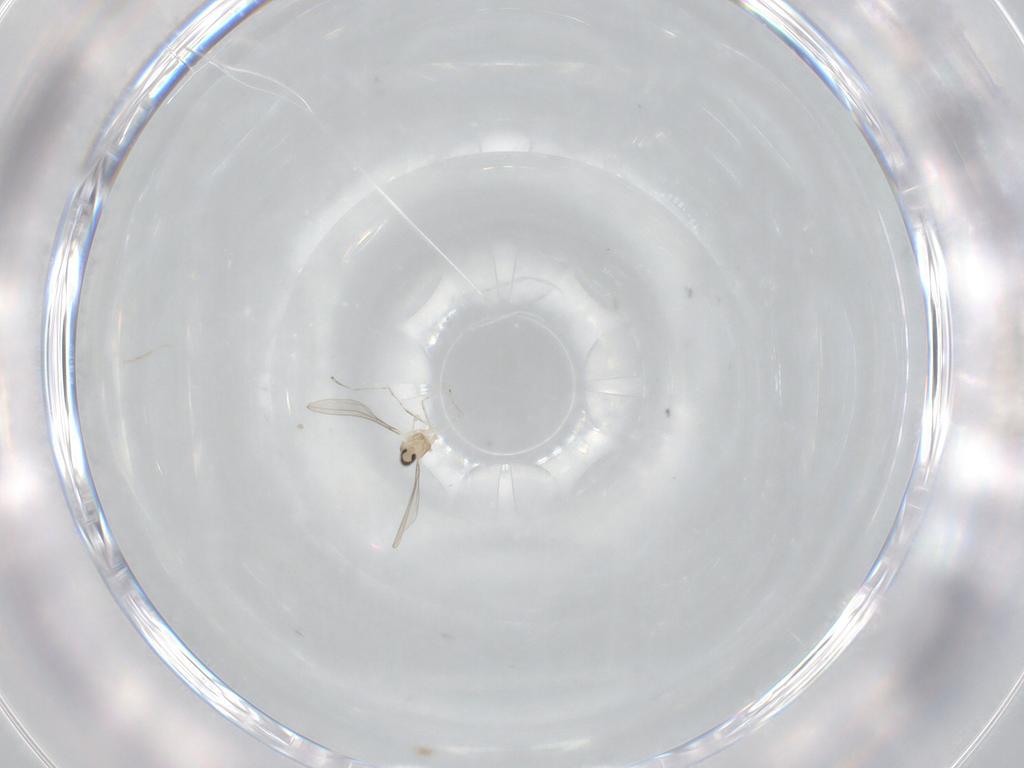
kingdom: Animalia
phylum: Arthropoda
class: Insecta
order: Diptera
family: Cecidomyiidae
